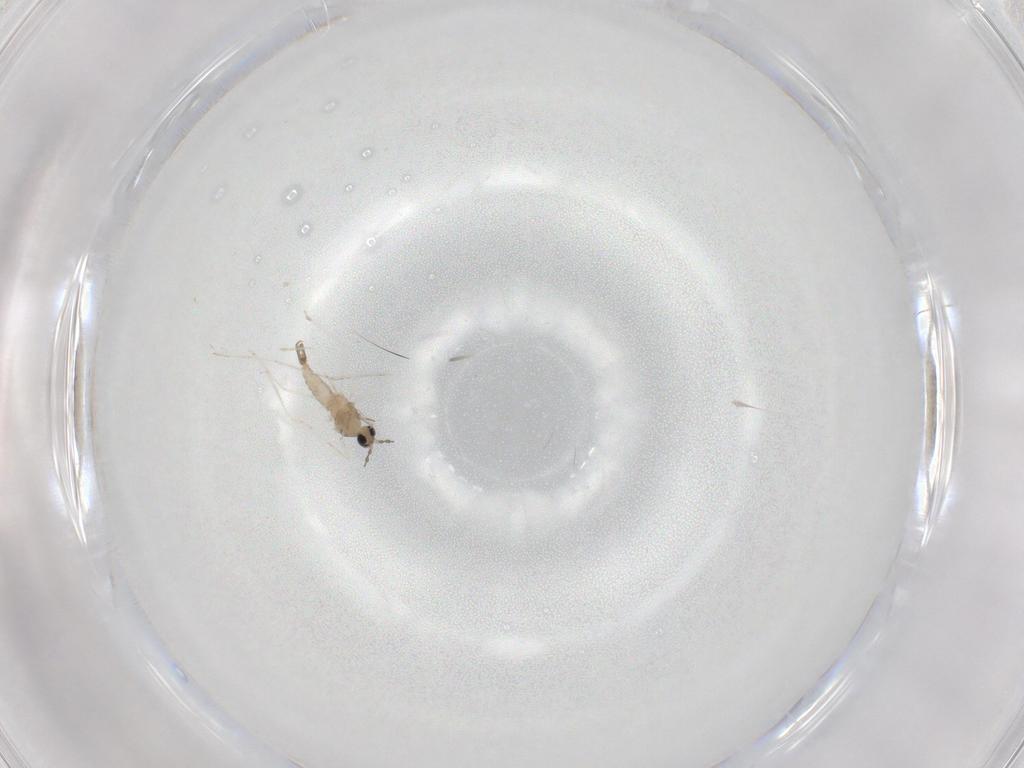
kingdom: Animalia
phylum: Arthropoda
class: Insecta
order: Diptera
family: Cecidomyiidae
